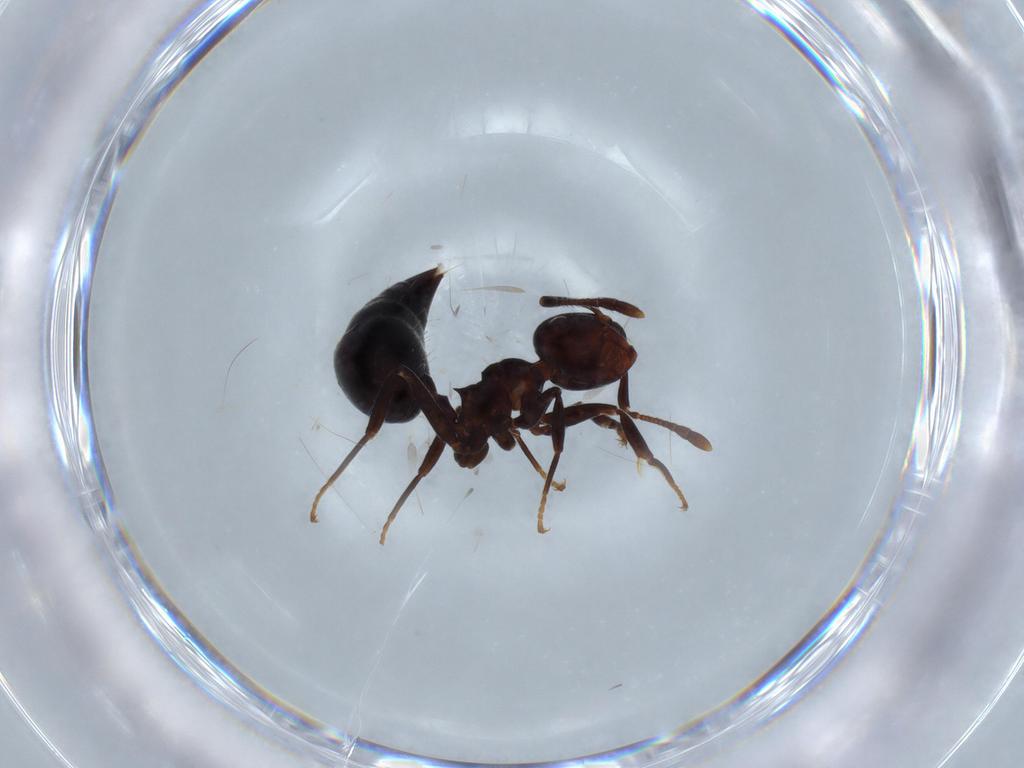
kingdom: Animalia
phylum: Arthropoda
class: Insecta
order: Hymenoptera
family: Formicidae
